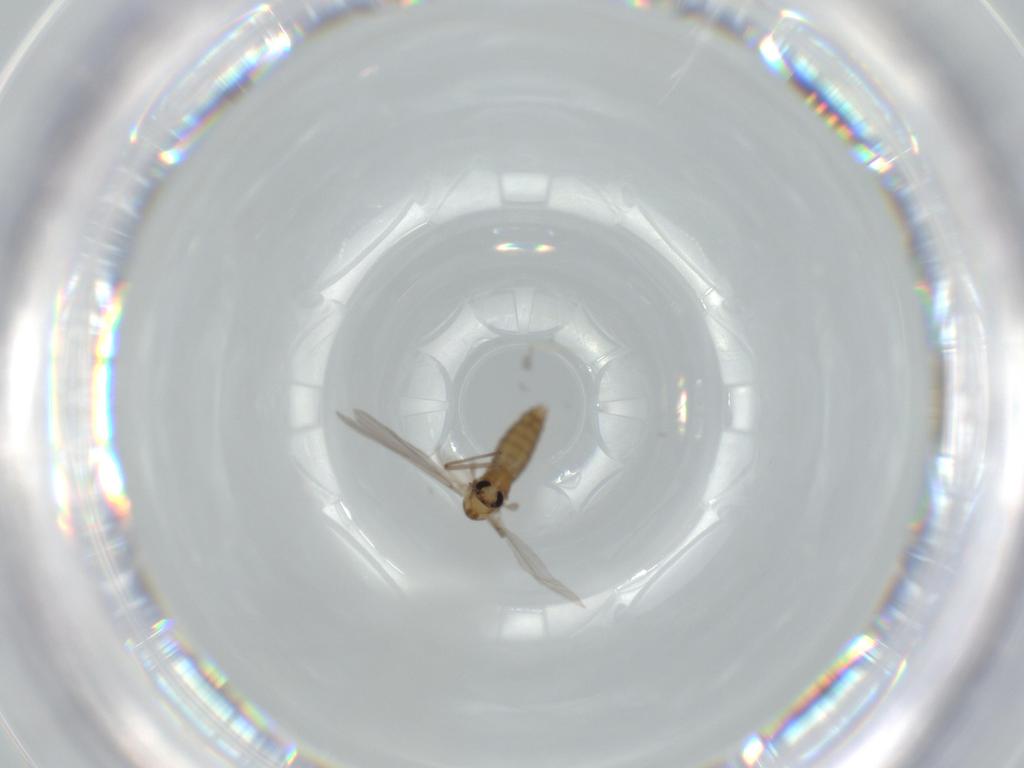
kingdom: Animalia
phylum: Arthropoda
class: Insecta
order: Diptera
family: Chironomidae
